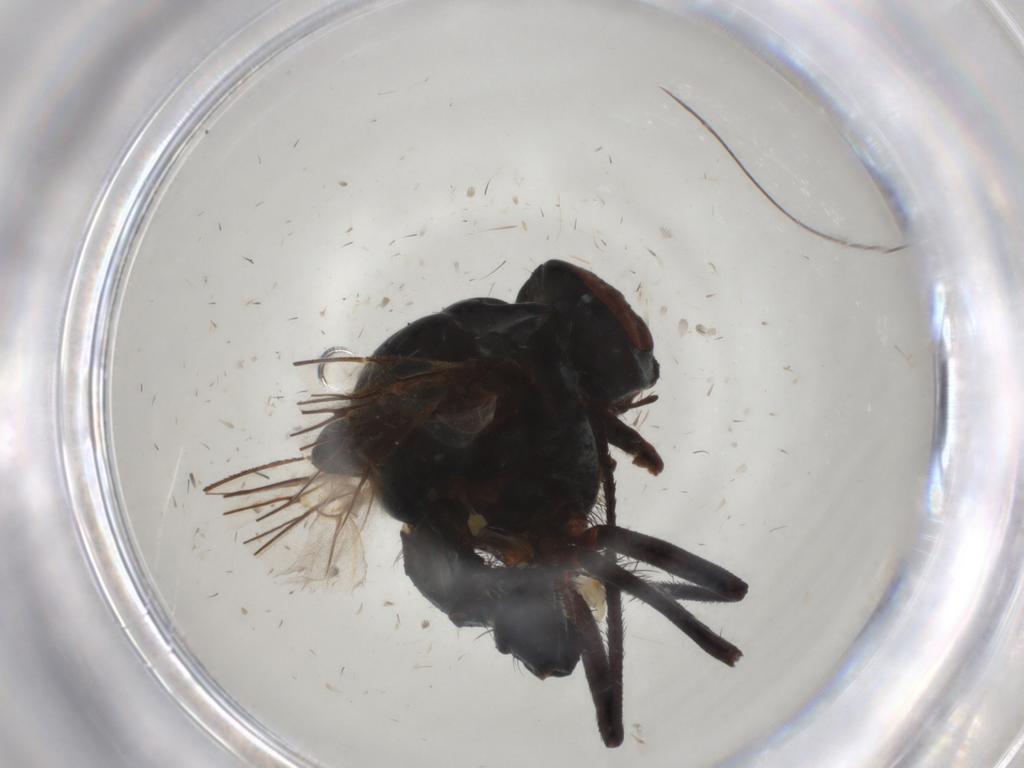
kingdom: Animalia
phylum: Arthropoda
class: Insecta
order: Diptera
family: Anthomyiidae
